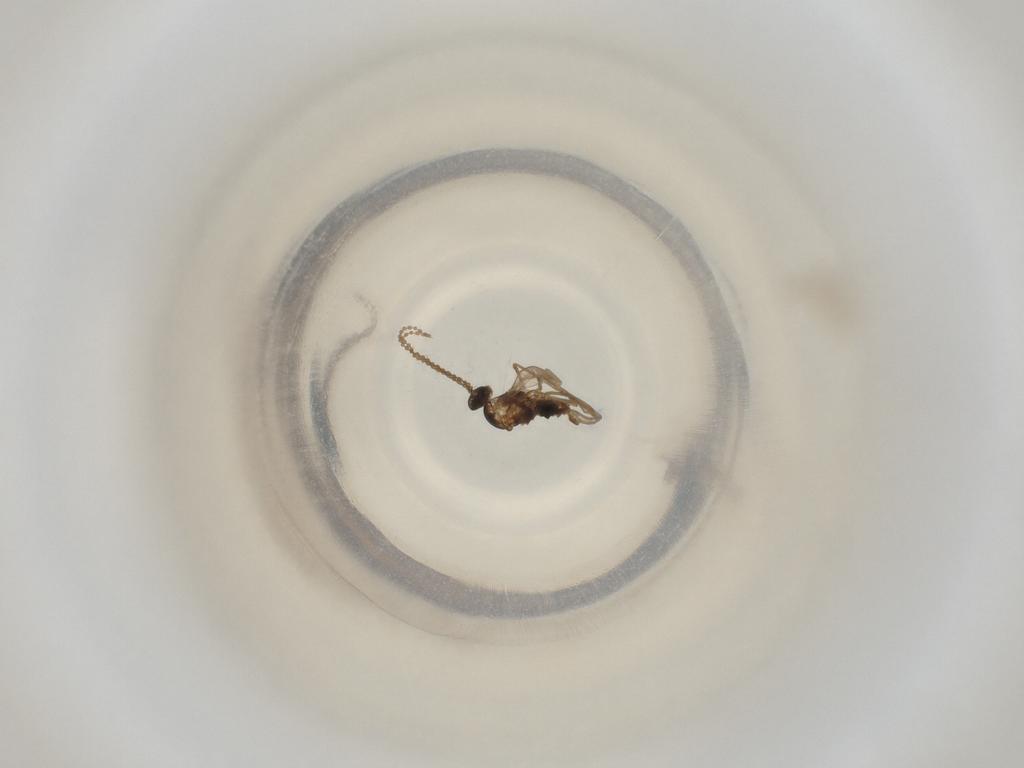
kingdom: Animalia
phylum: Arthropoda
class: Insecta
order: Diptera
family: Cecidomyiidae
